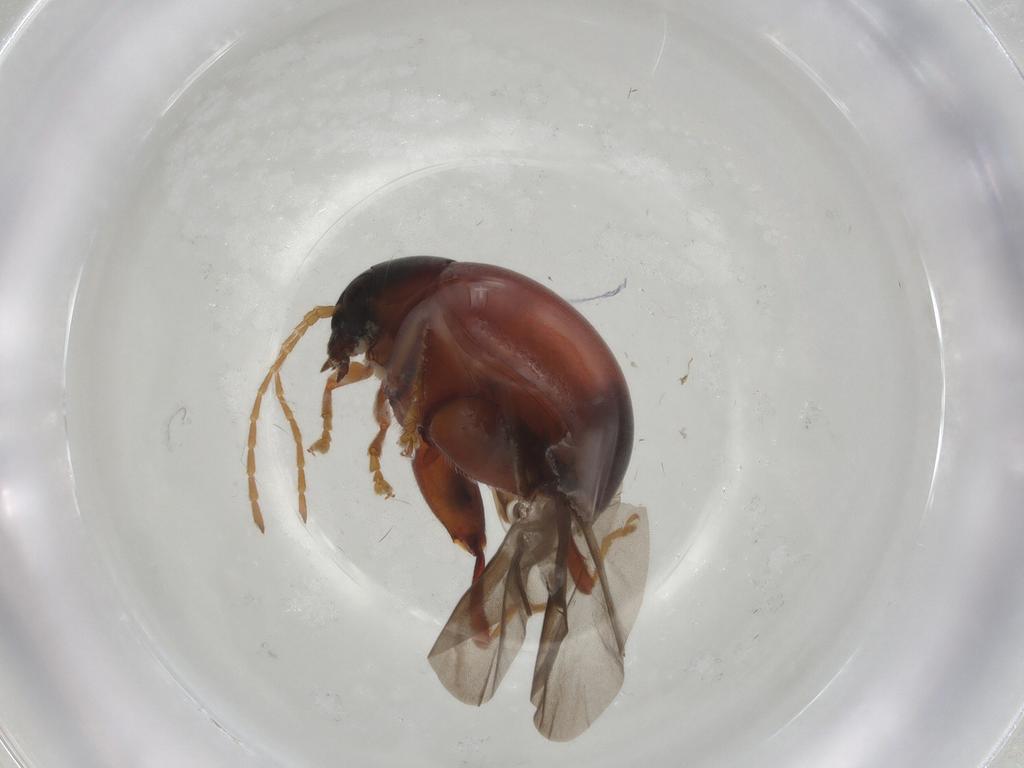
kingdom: Animalia
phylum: Arthropoda
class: Insecta
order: Coleoptera
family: Chrysomelidae
